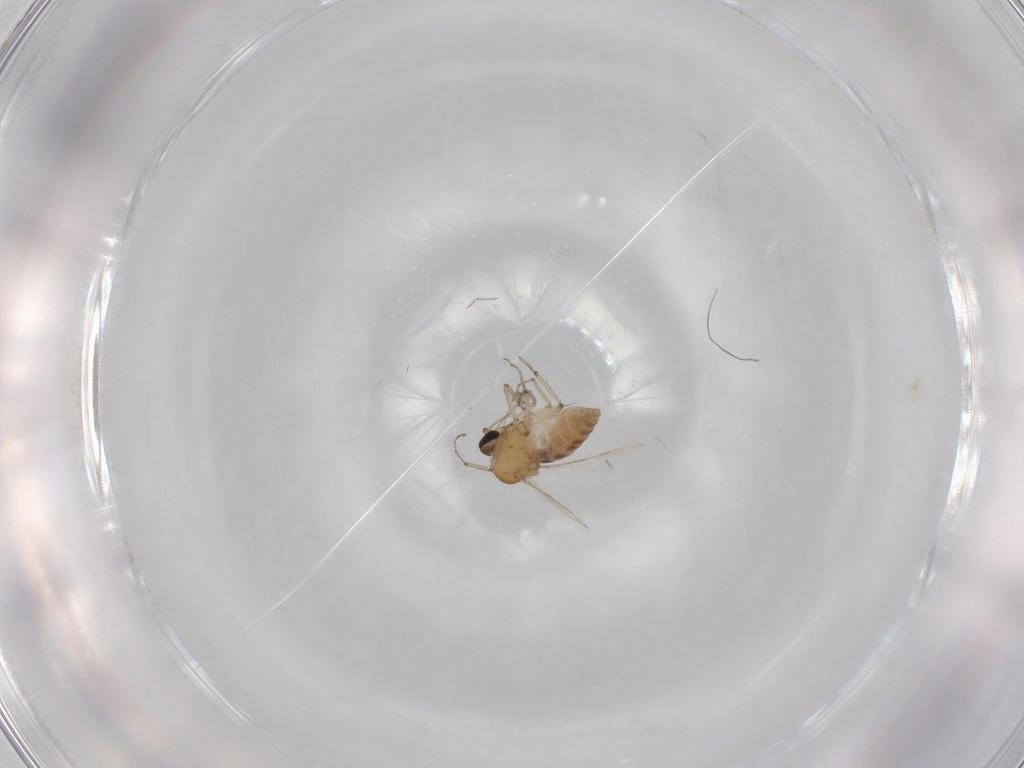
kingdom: Animalia
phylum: Arthropoda
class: Insecta
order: Diptera
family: Ceratopogonidae
